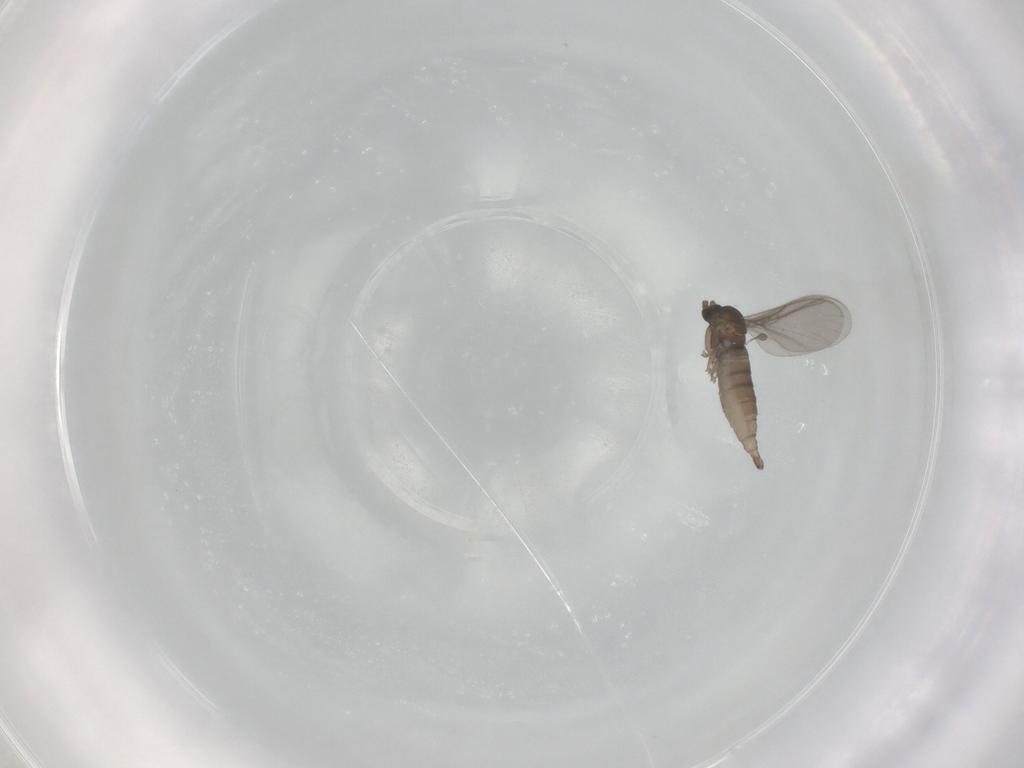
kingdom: Animalia
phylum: Arthropoda
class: Insecta
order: Diptera
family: Sciaridae
